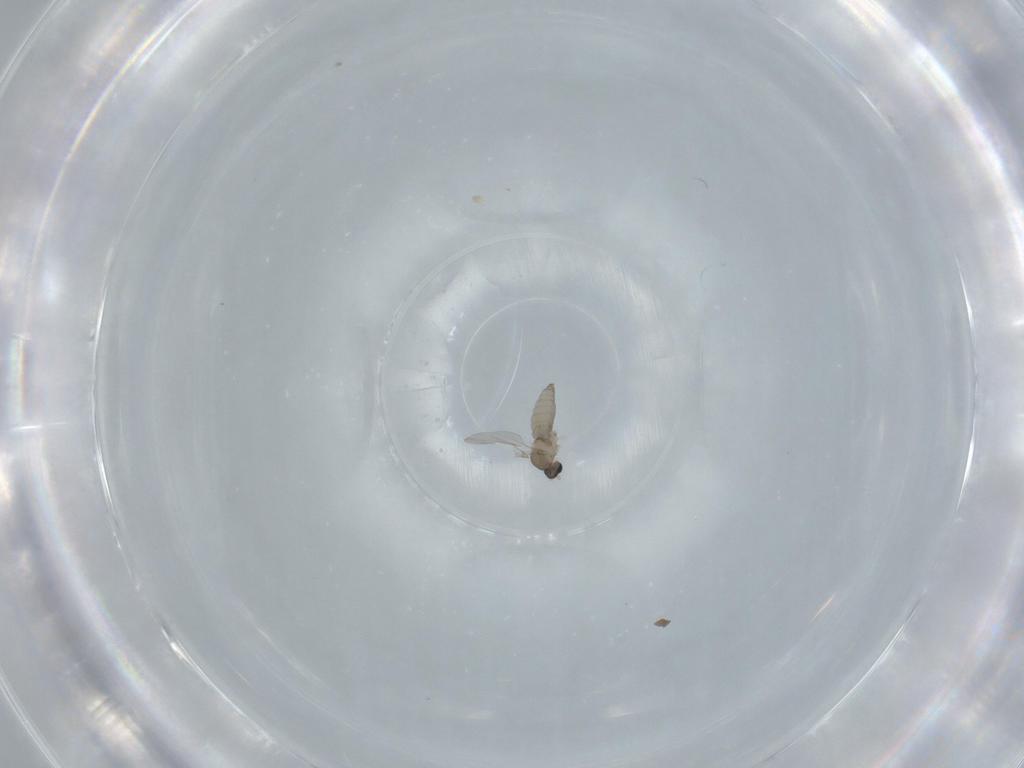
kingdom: Animalia
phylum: Arthropoda
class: Insecta
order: Diptera
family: Cecidomyiidae
